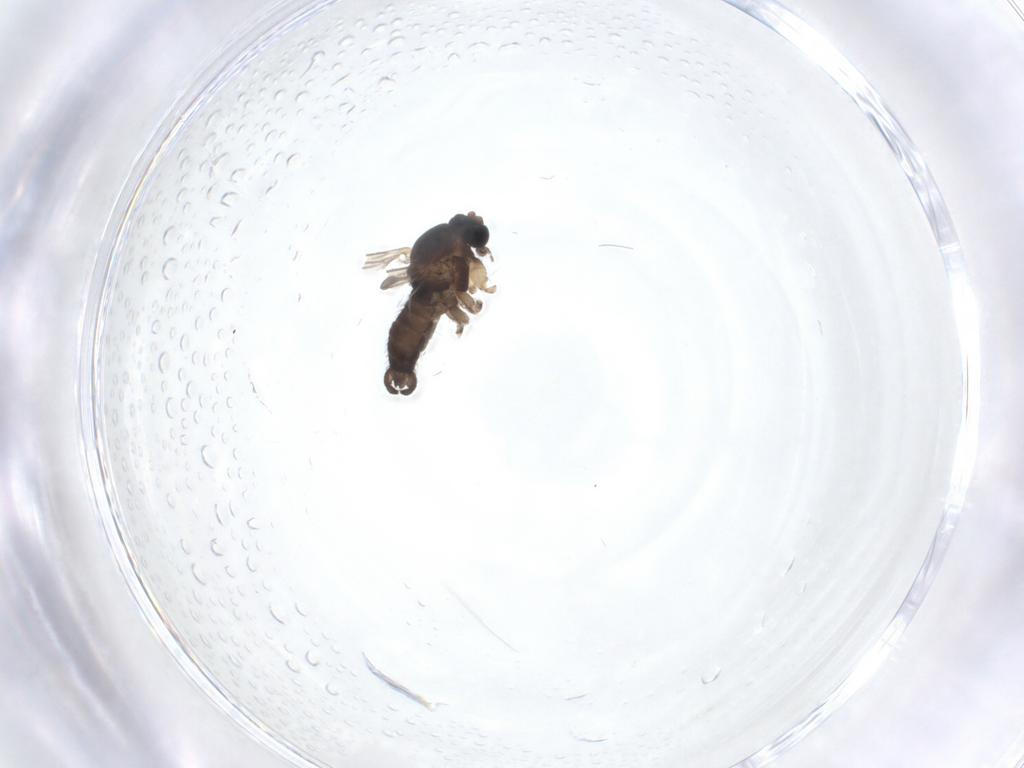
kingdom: Animalia
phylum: Arthropoda
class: Insecta
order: Diptera
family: Sciaridae
